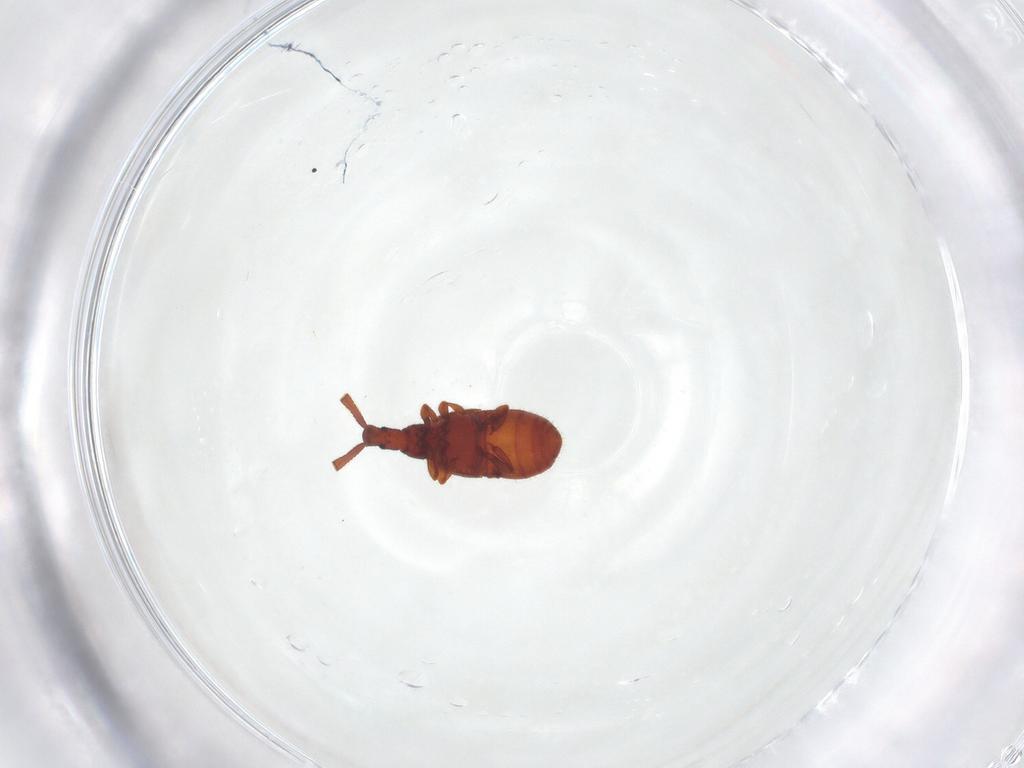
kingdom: Animalia
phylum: Arthropoda
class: Insecta
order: Coleoptera
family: Staphylinidae
